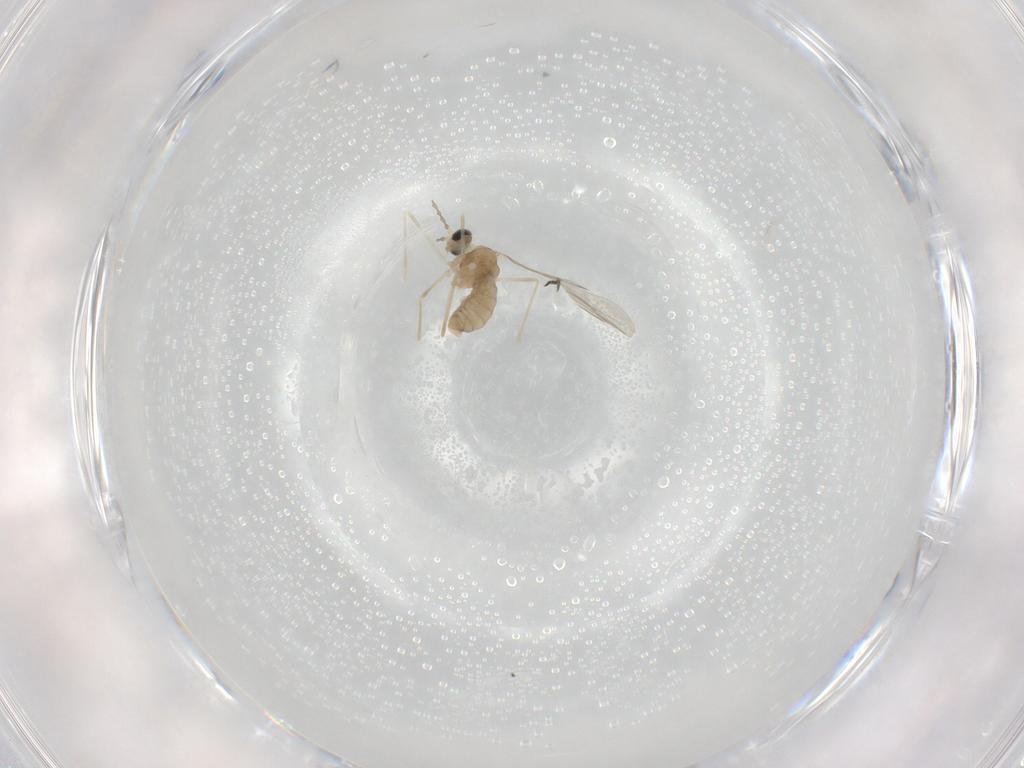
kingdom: Animalia
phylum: Arthropoda
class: Insecta
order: Diptera
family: Cecidomyiidae
